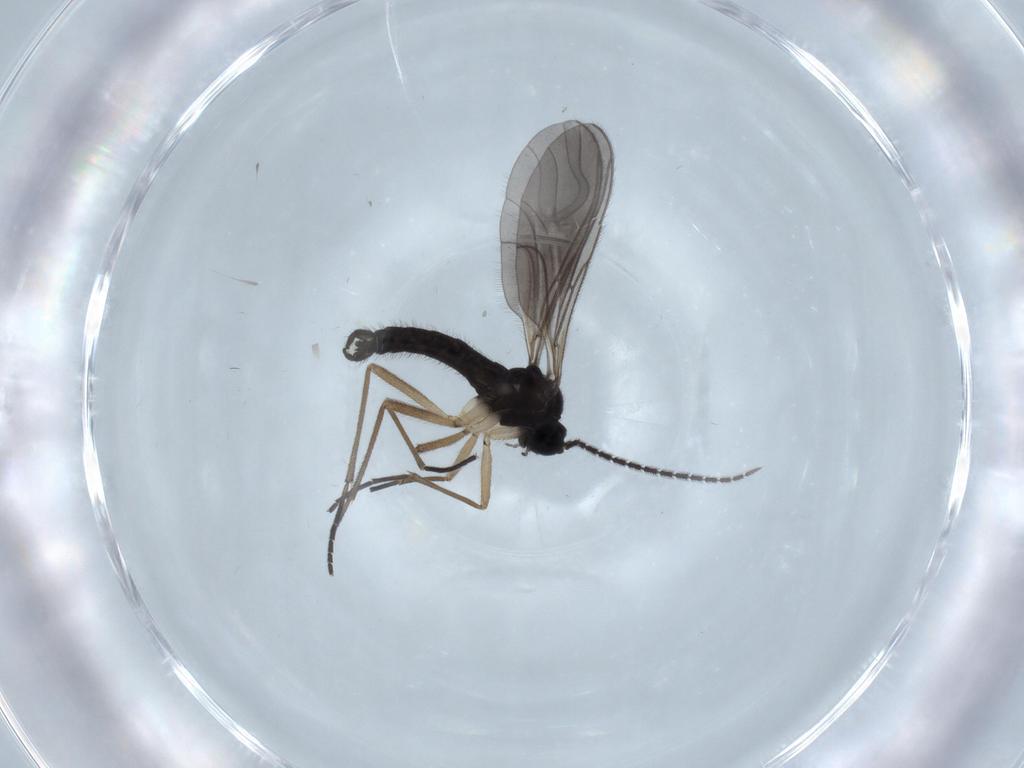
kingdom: Animalia
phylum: Arthropoda
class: Insecta
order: Diptera
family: Sciaridae
